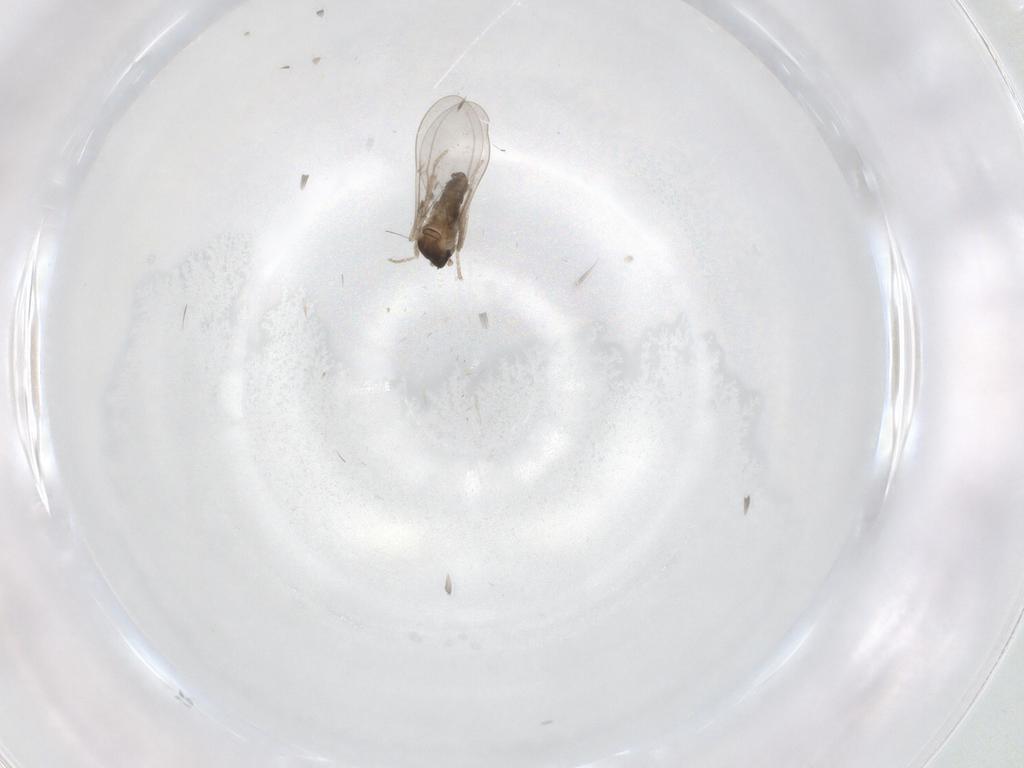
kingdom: Animalia
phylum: Arthropoda
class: Insecta
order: Diptera
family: Cecidomyiidae
